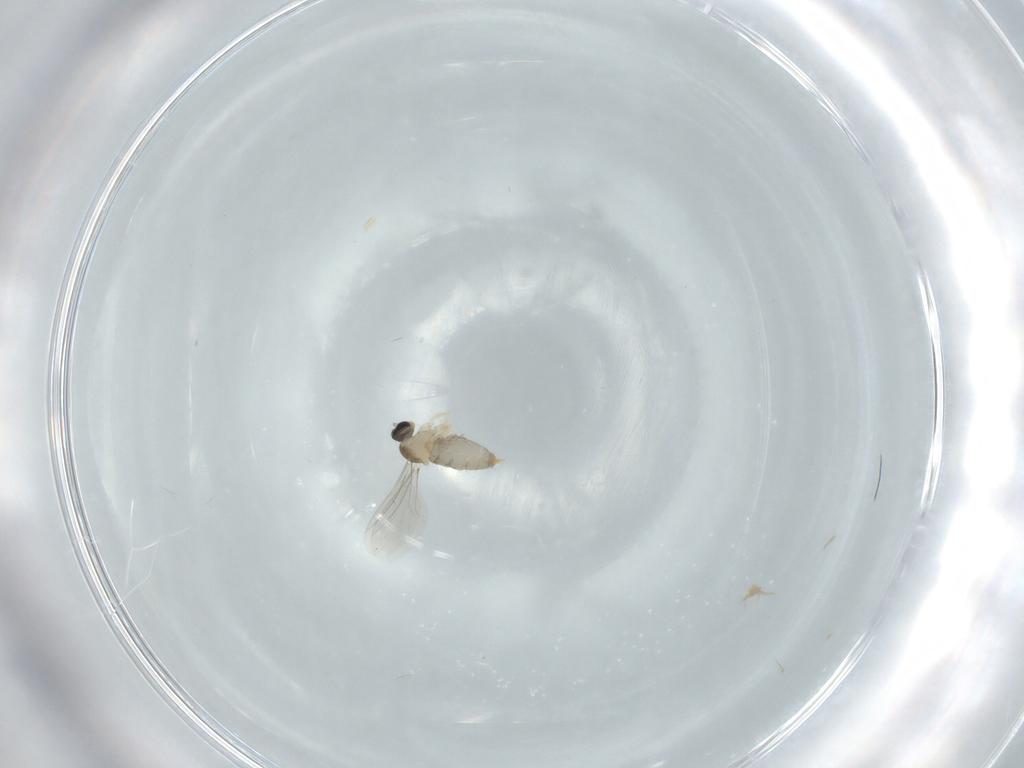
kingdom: Animalia
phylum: Arthropoda
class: Insecta
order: Diptera
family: Cecidomyiidae
